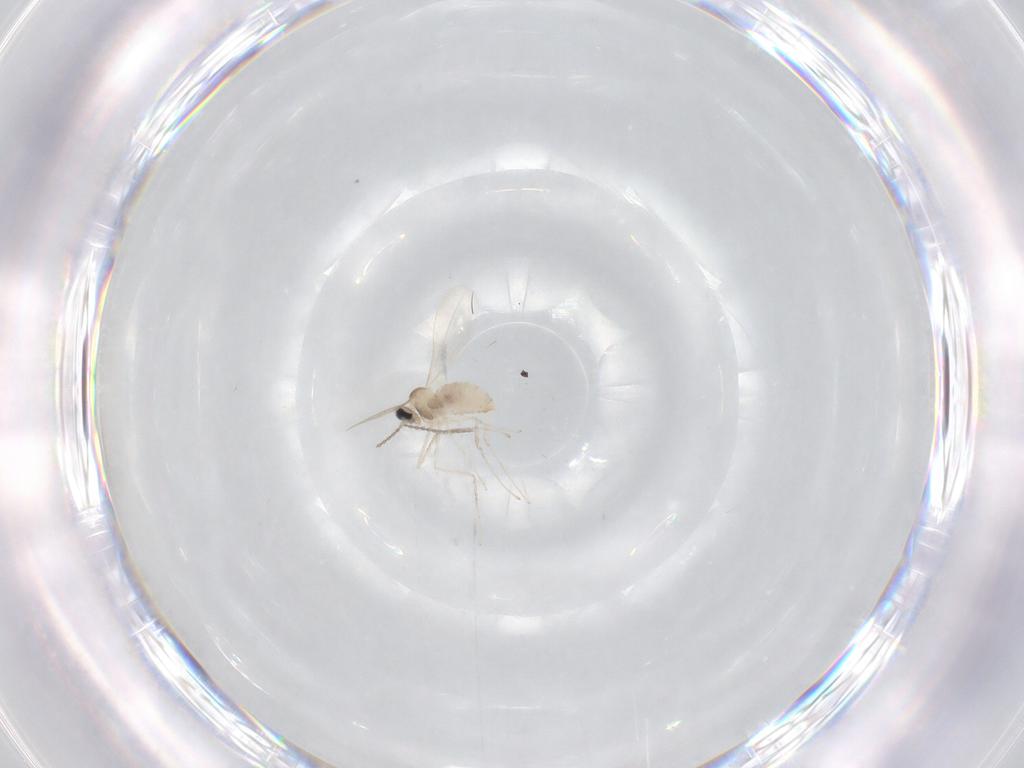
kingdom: Animalia
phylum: Arthropoda
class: Insecta
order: Diptera
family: Cecidomyiidae
